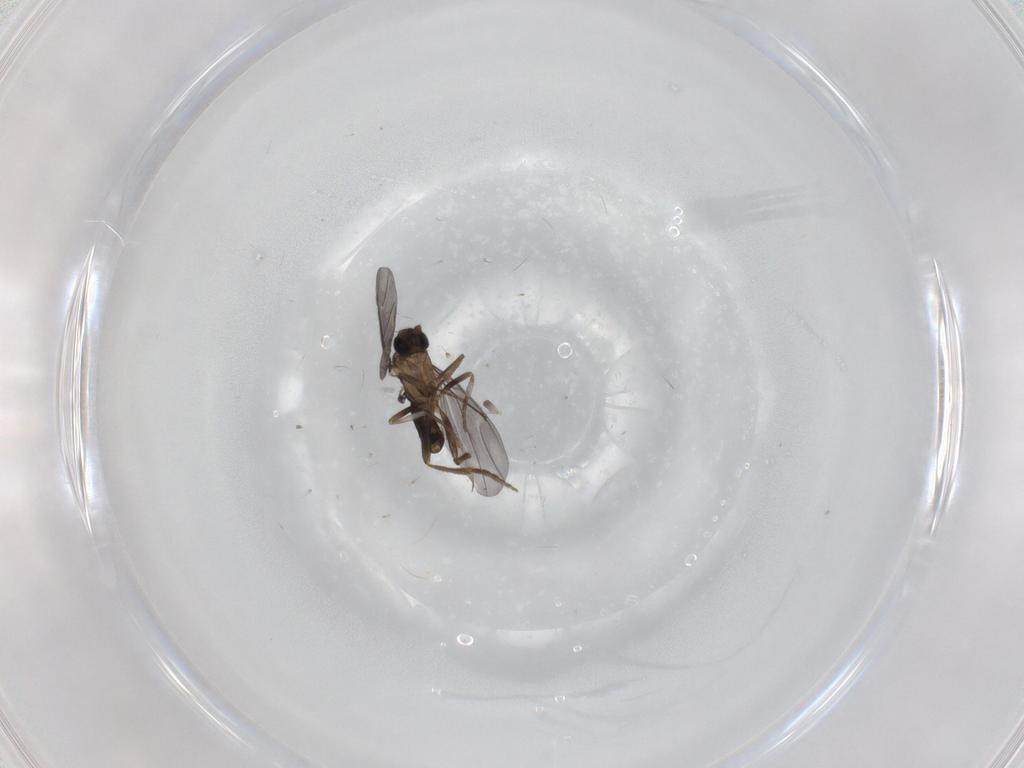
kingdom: Animalia
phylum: Arthropoda
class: Insecta
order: Diptera
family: Phoridae
